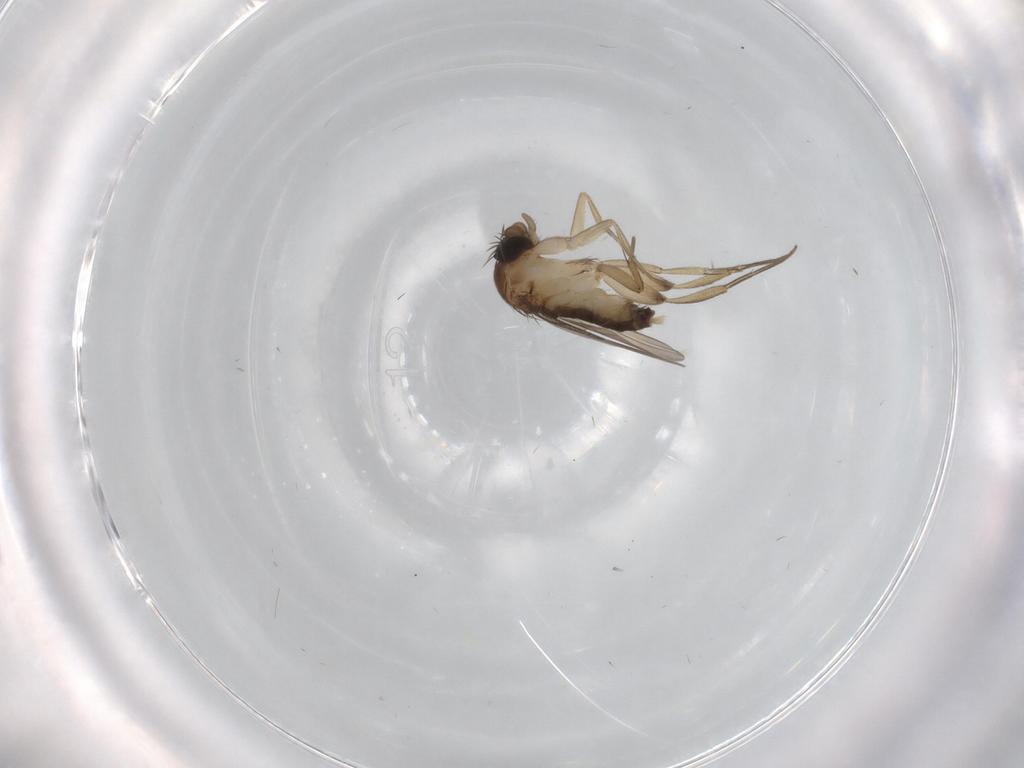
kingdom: Animalia
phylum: Arthropoda
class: Insecta
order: Diptera
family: Phoridae
